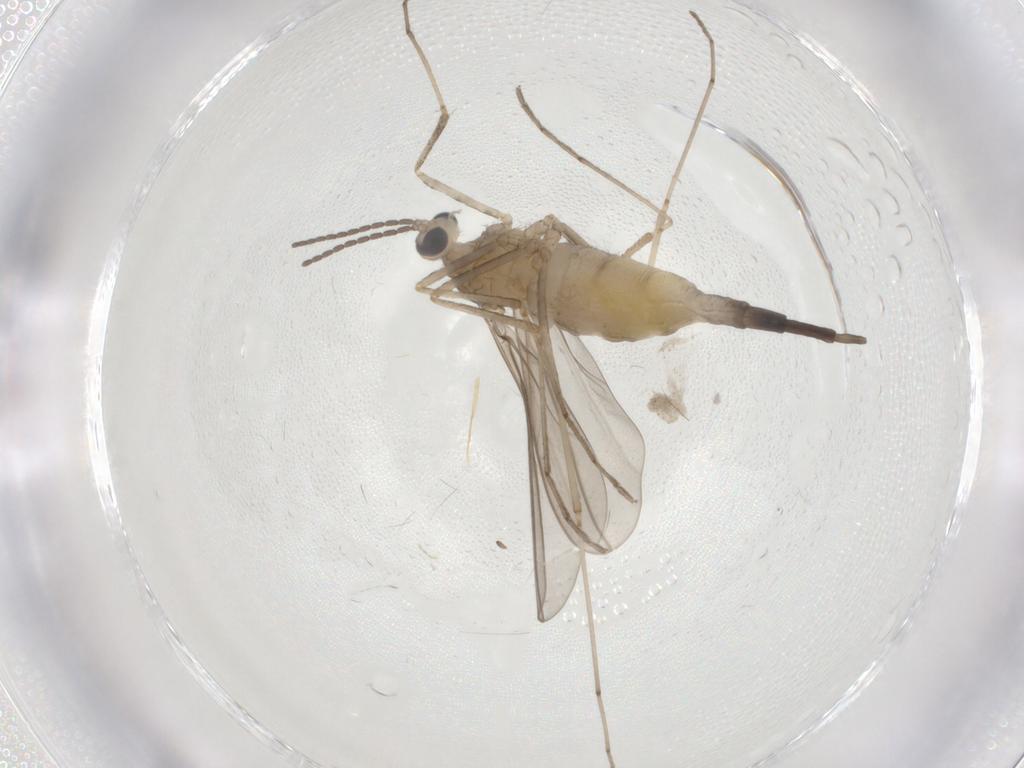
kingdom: Animalia
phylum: Arthropoda
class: Insecta
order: Diptera
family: Cecidomyiidae
